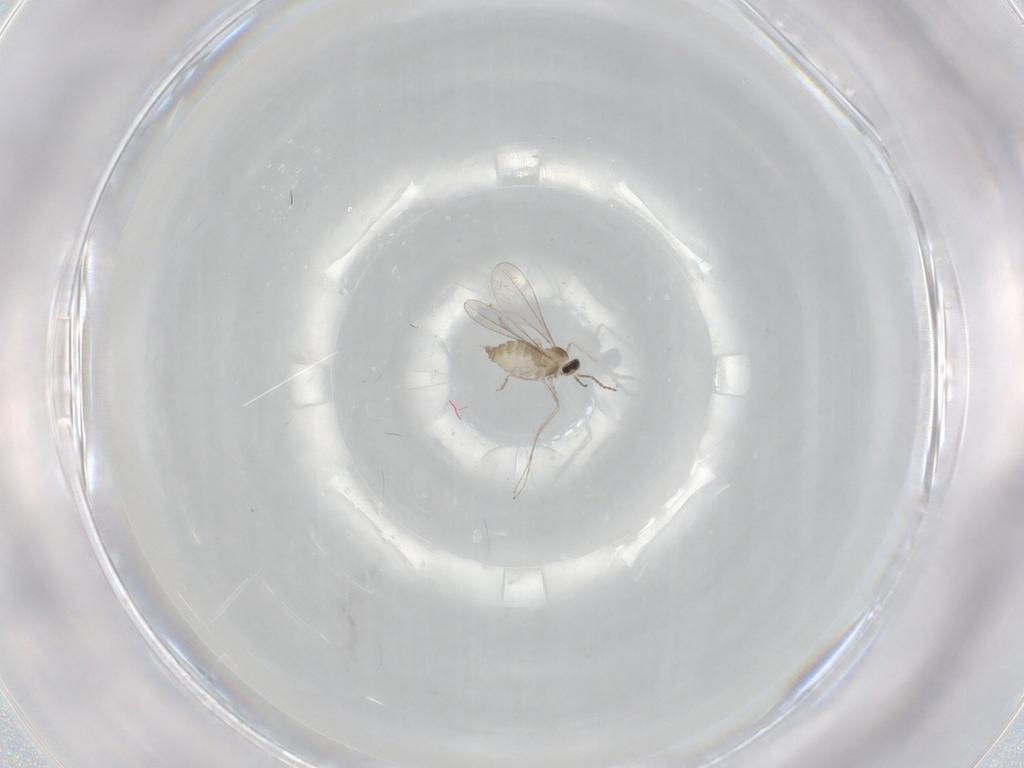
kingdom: Animalia
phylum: Arthropoda
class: Insecta
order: Diptera
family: Cecidomyiidae
